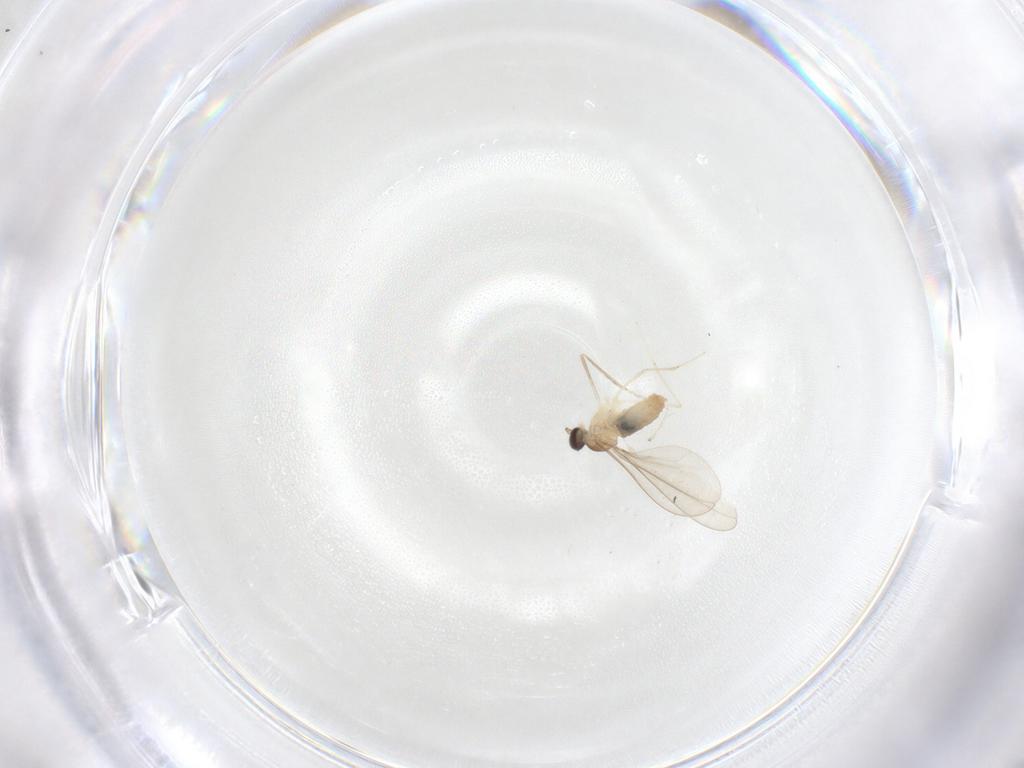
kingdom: Animalia
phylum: Arthropoda
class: Insecta
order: Diptera
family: Cecidomyiidae
